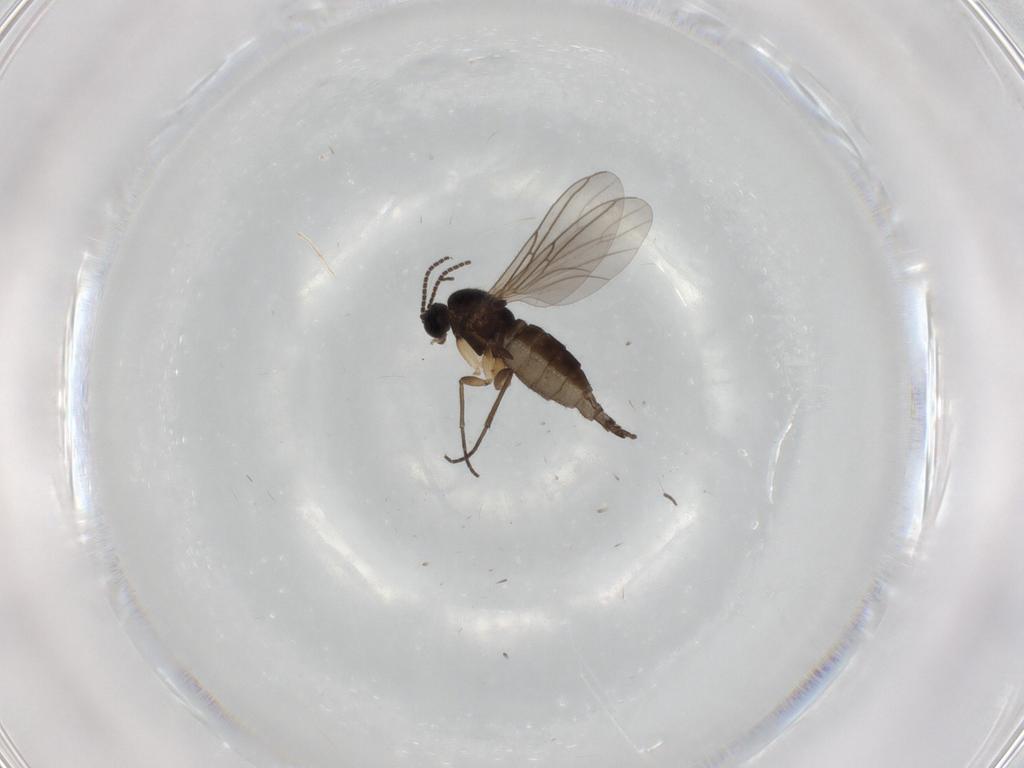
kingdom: Animalia
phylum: Arthropoda
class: Insecta
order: Diptera
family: Sciaridae
